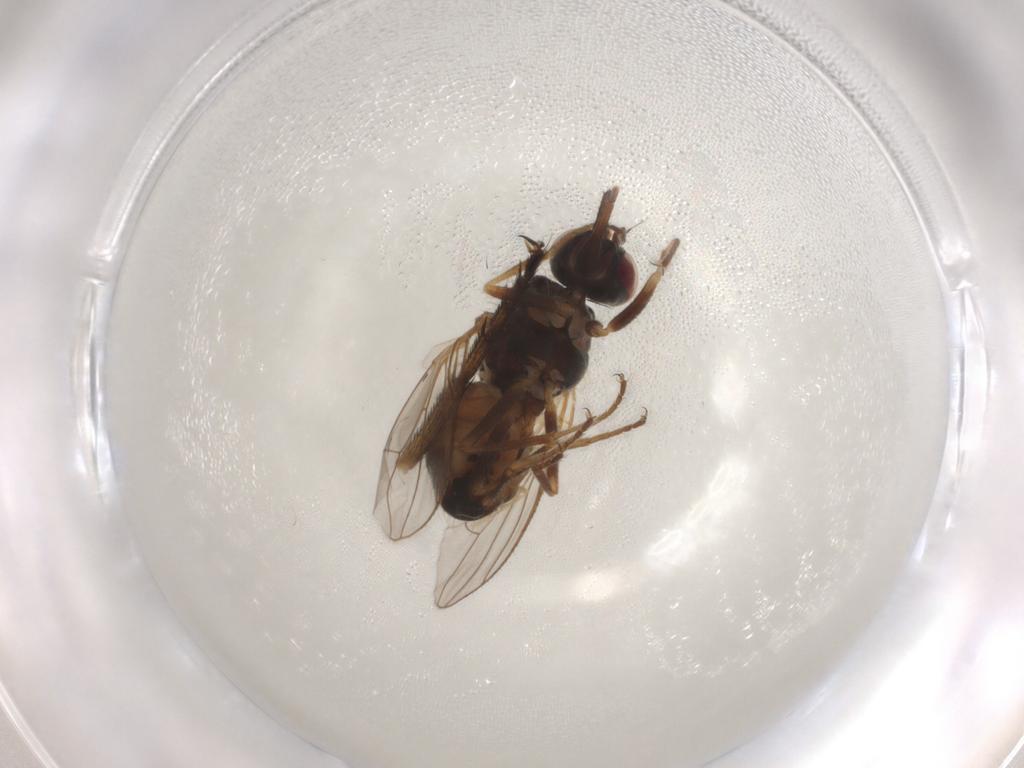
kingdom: Animalia
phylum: Arthropoda
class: Insecta
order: Diptera
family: Calliphoridae
